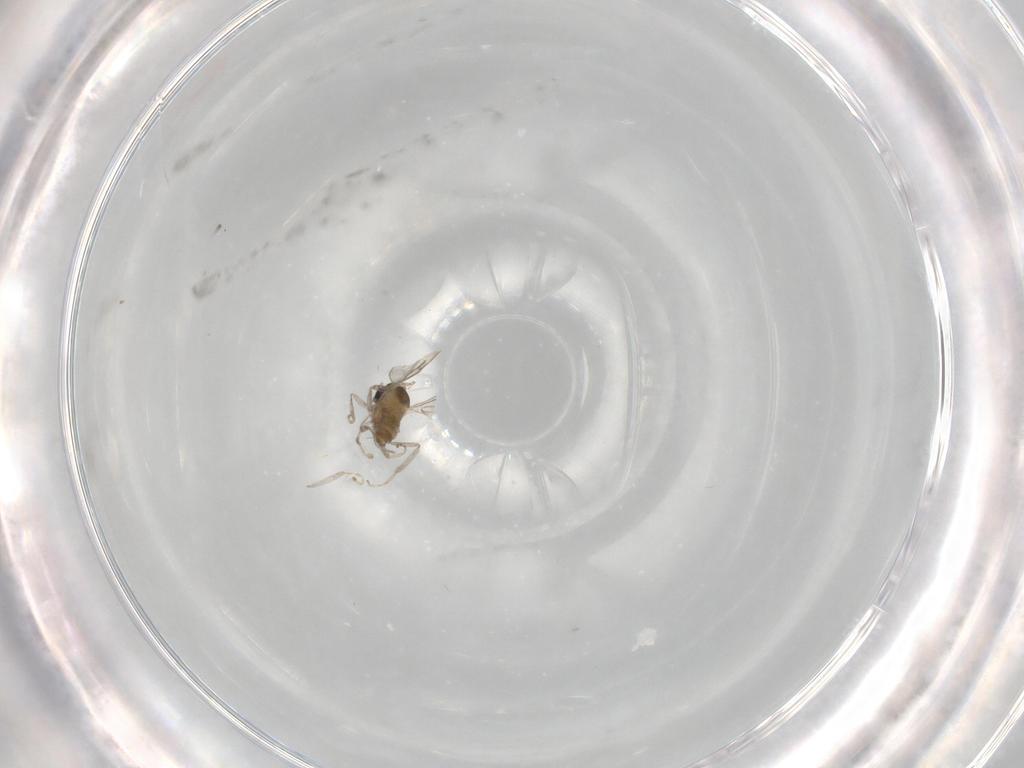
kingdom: Animalia
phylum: Arthropoda
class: Insecta
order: Diptera
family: Cecidomyiidae
